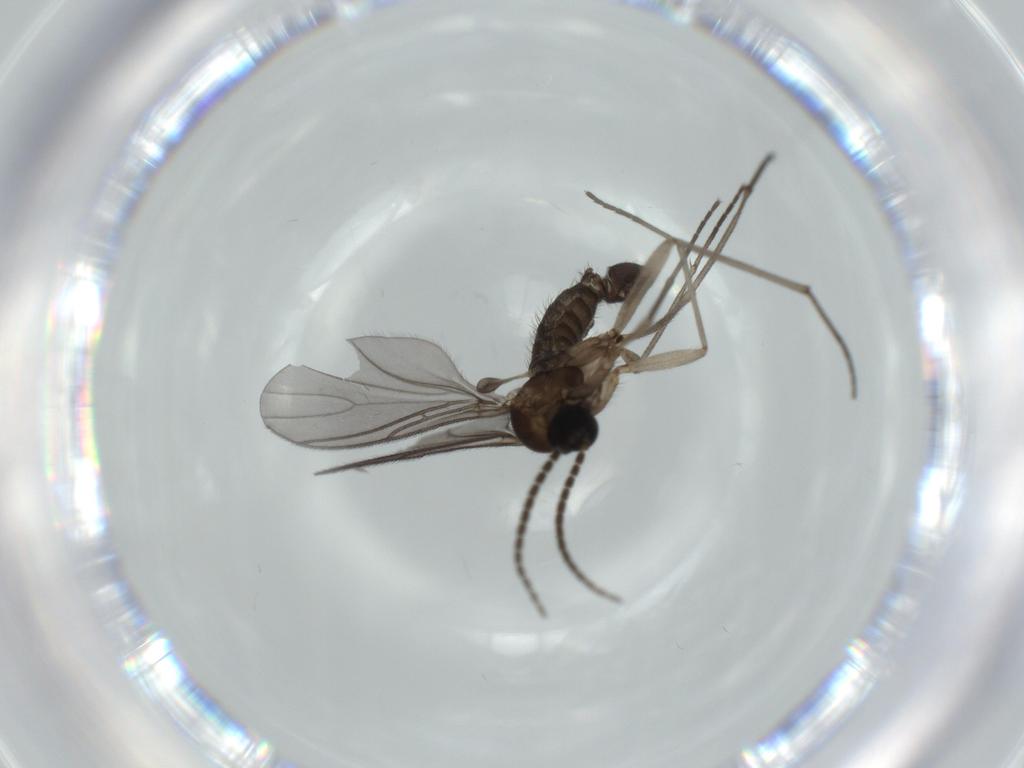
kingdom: Animalia
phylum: Arthropoda
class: Insecta
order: Diptera
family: Sciaridae
